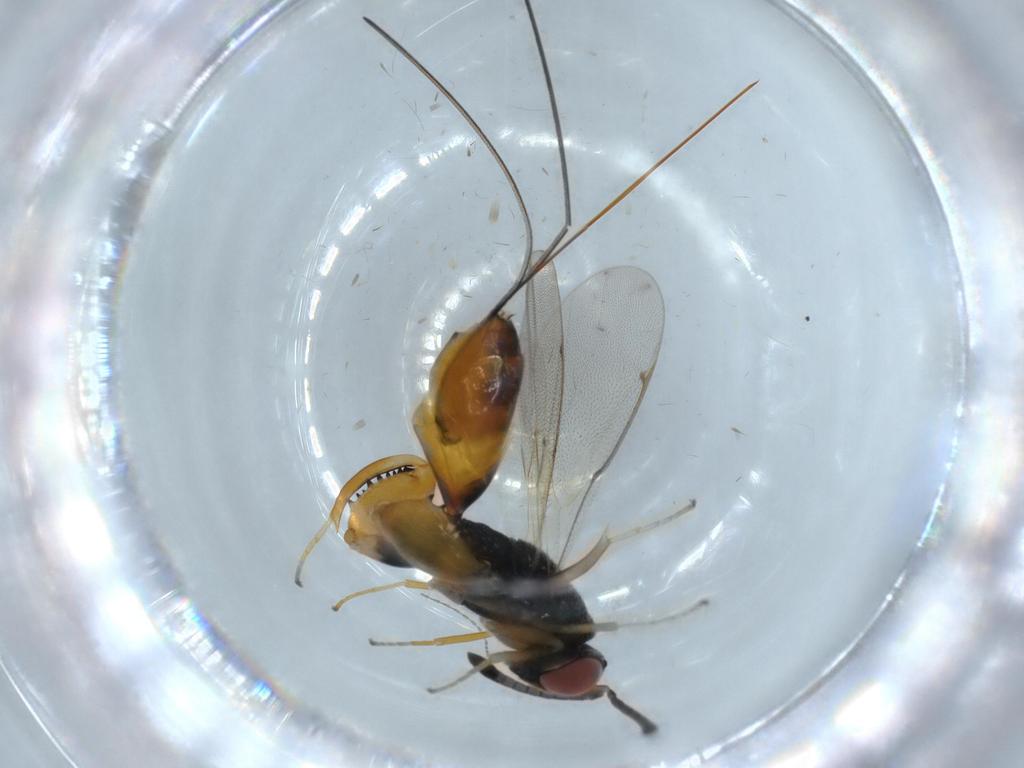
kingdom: Animalia
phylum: Arthropoda
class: Insecta
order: Hymenoptera
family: Torymidae
